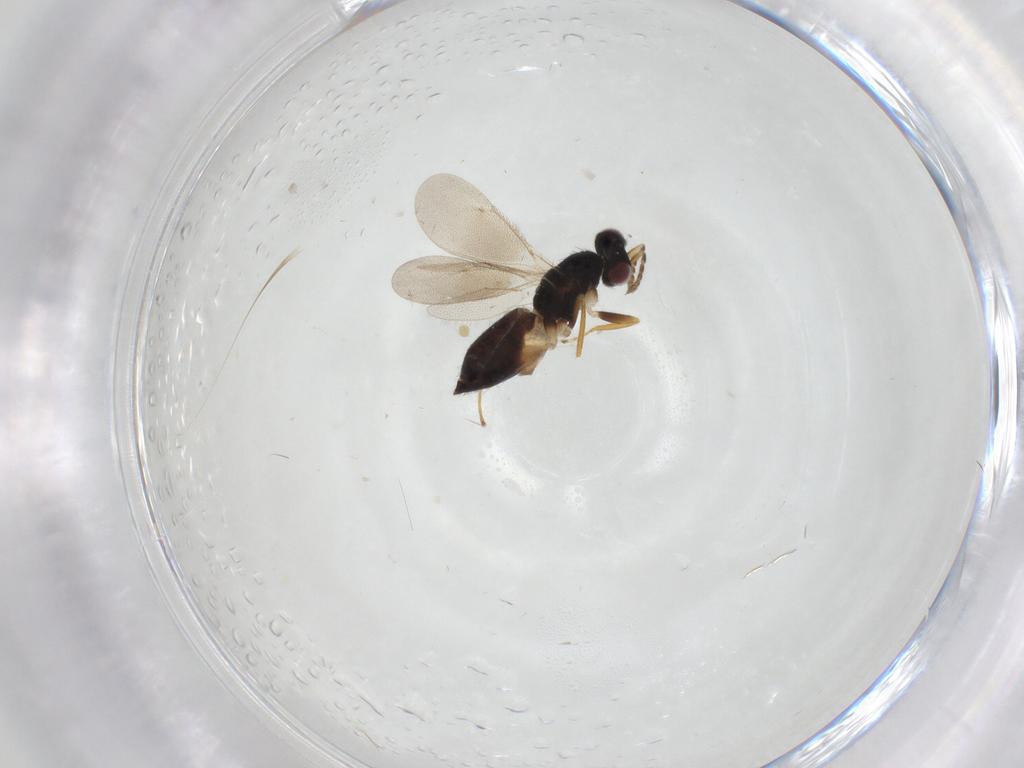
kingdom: Animalia
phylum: Arthropoda
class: Insecta
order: Hymenoptera
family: Eulophidae
